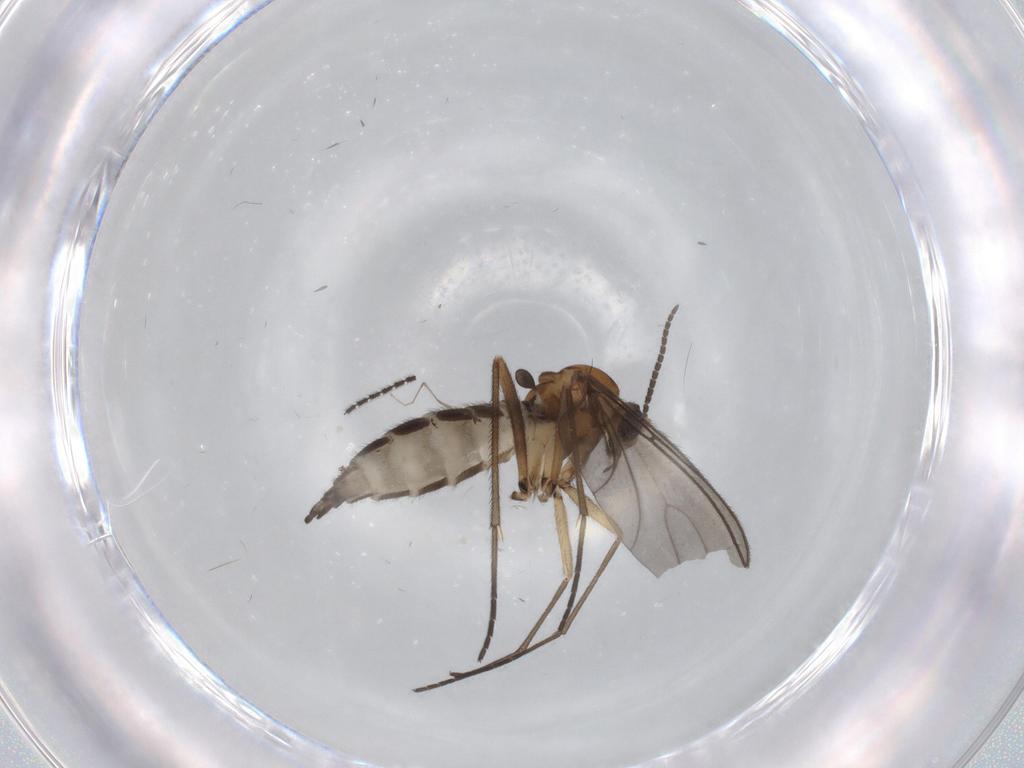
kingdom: Animalia
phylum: Arthropoda
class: Insecta
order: Diptera
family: Sciaridae
